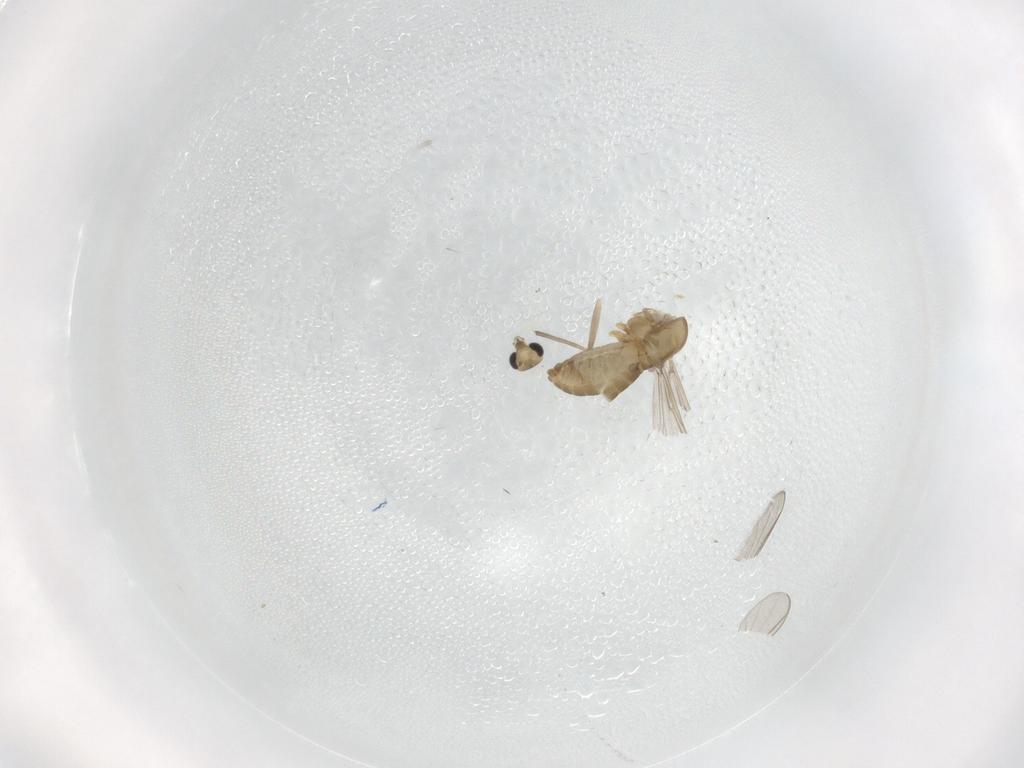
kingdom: Animalia
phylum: Arthropoda
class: Insecta
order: Diptera
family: Chironomidae
